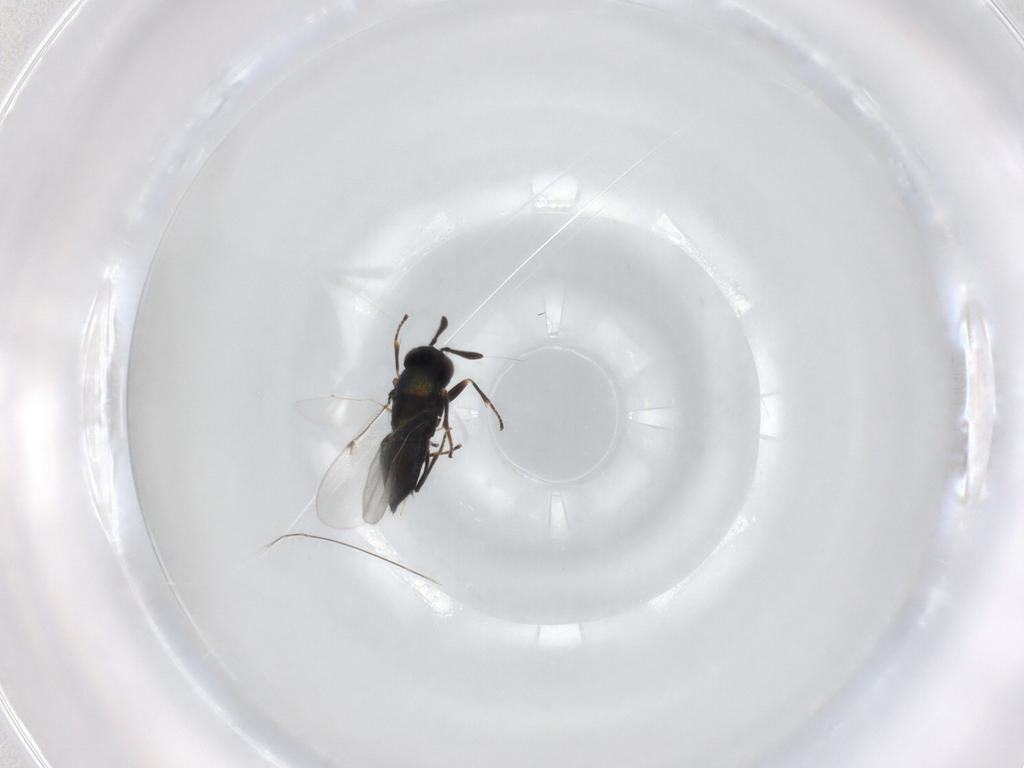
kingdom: Animalia
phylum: Arthropoda
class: Insecta
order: Hymenoptera
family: Encyrtidae
